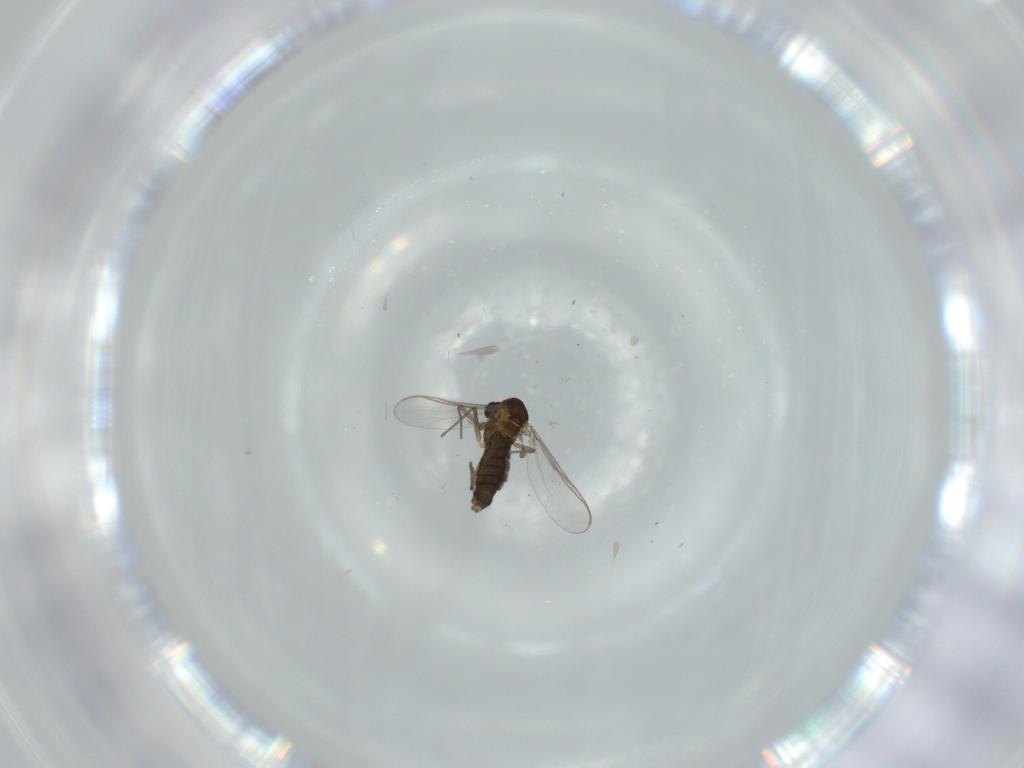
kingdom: Animalia
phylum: Arthropoda
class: Insecta
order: Diptera
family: Chironomidae
